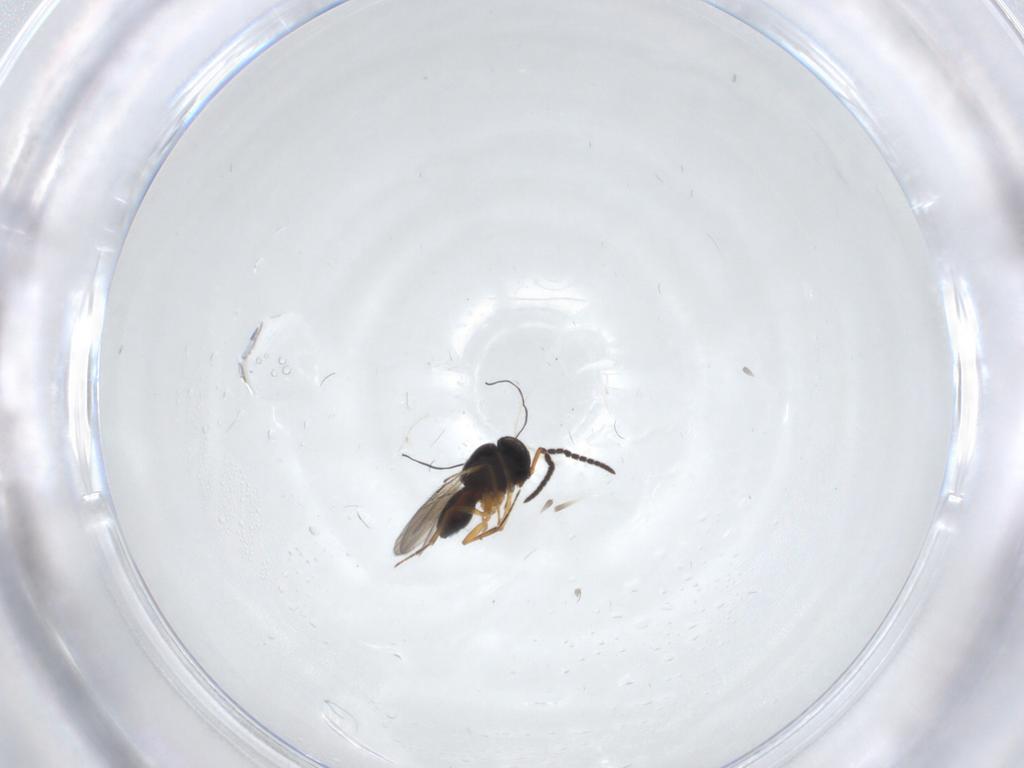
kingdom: Animalia
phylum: Arthropoda
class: Insecta
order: Hymenoptera
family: Scelionidae
